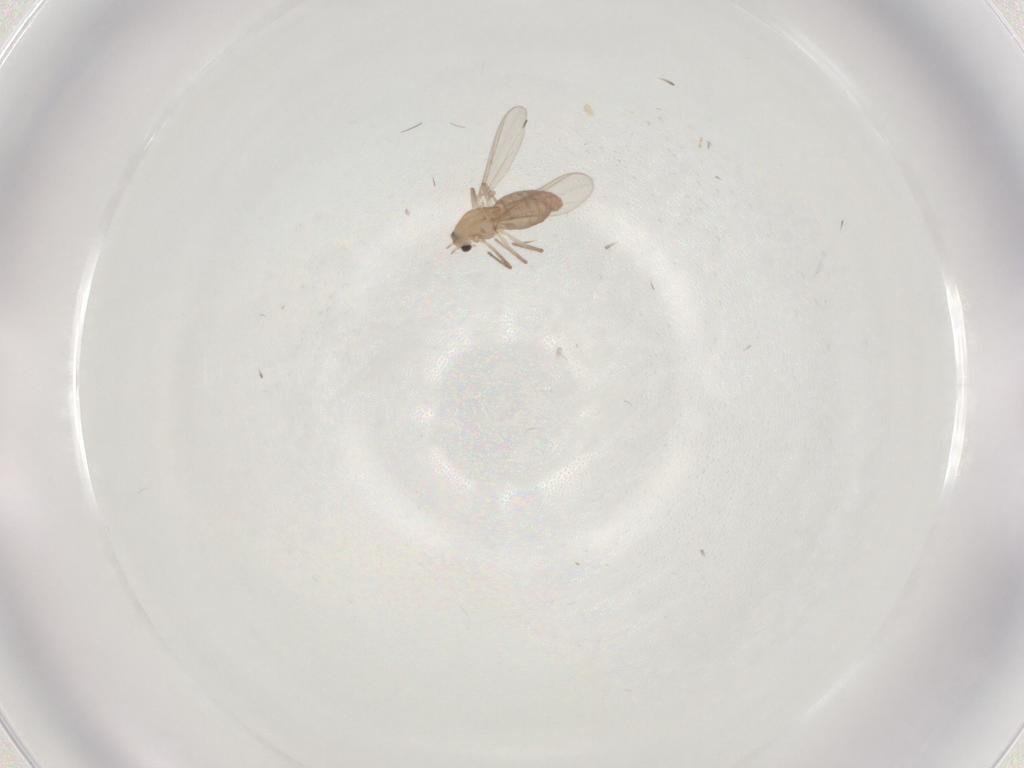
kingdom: Animalia
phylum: Arthropoda
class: Insecta
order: Diptera
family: Chironomidae
